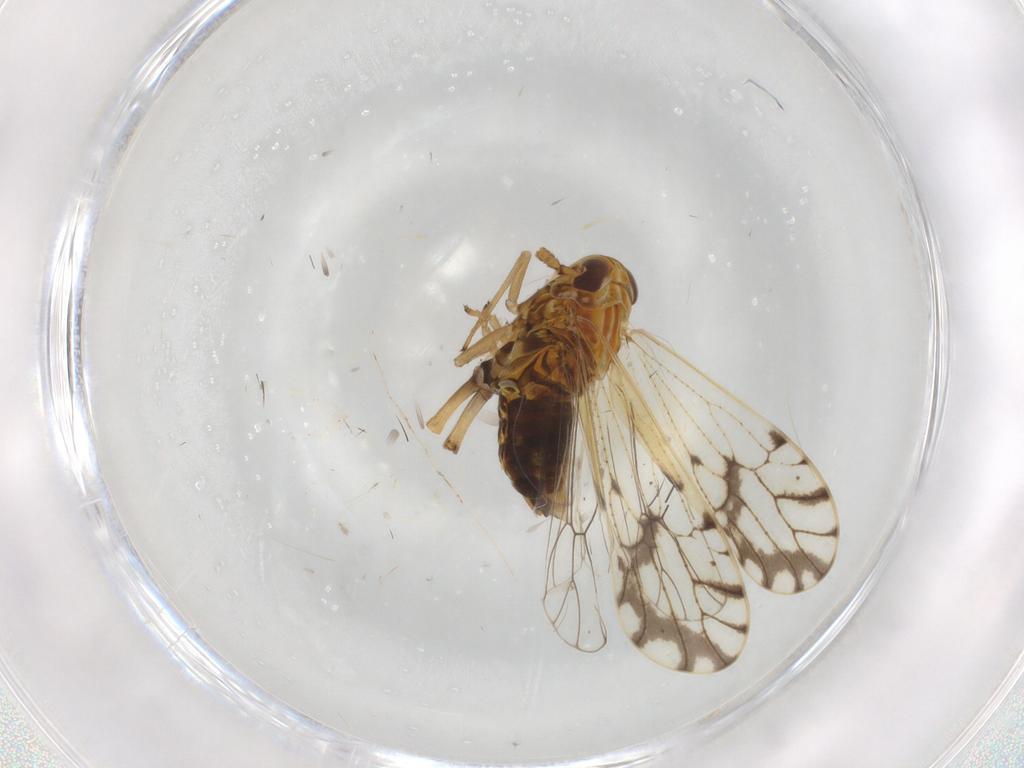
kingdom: Animalia
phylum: Arthropoda
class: Insecta
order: Hemiptera
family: Delphacidae
